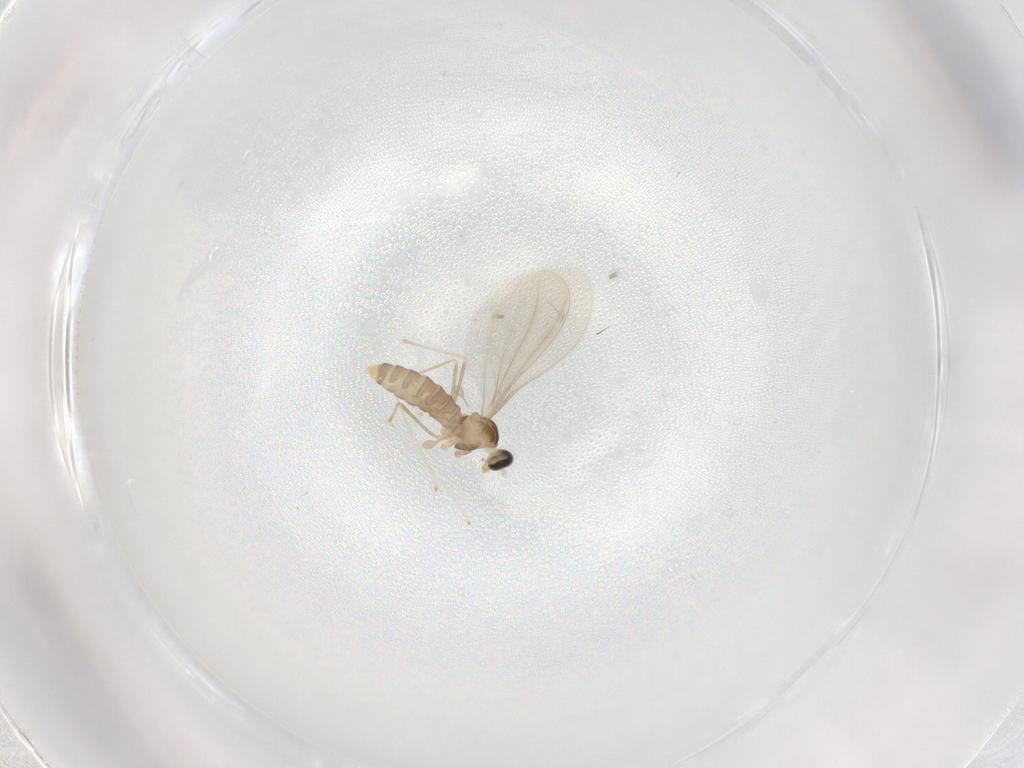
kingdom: Animalia
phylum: Arthropoda
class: Insecta
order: Diptera
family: Cecidomyiidae
